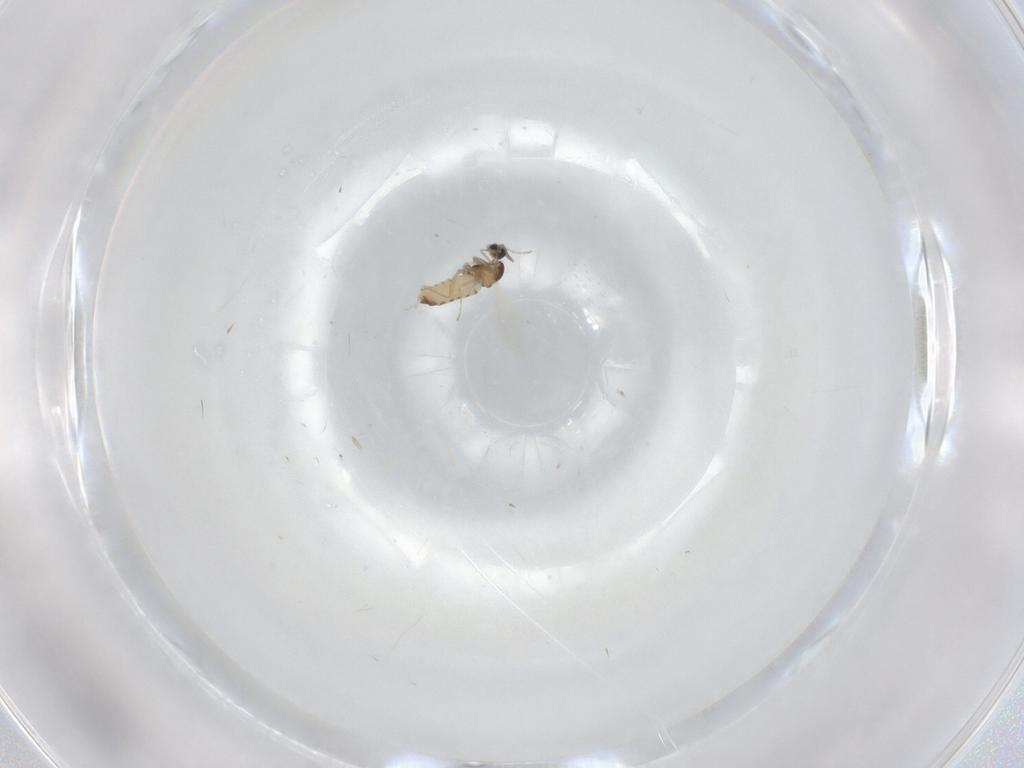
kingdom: Animalia
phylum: Arthropoda
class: Insecta
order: Diptera
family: Cecidomyiidae
